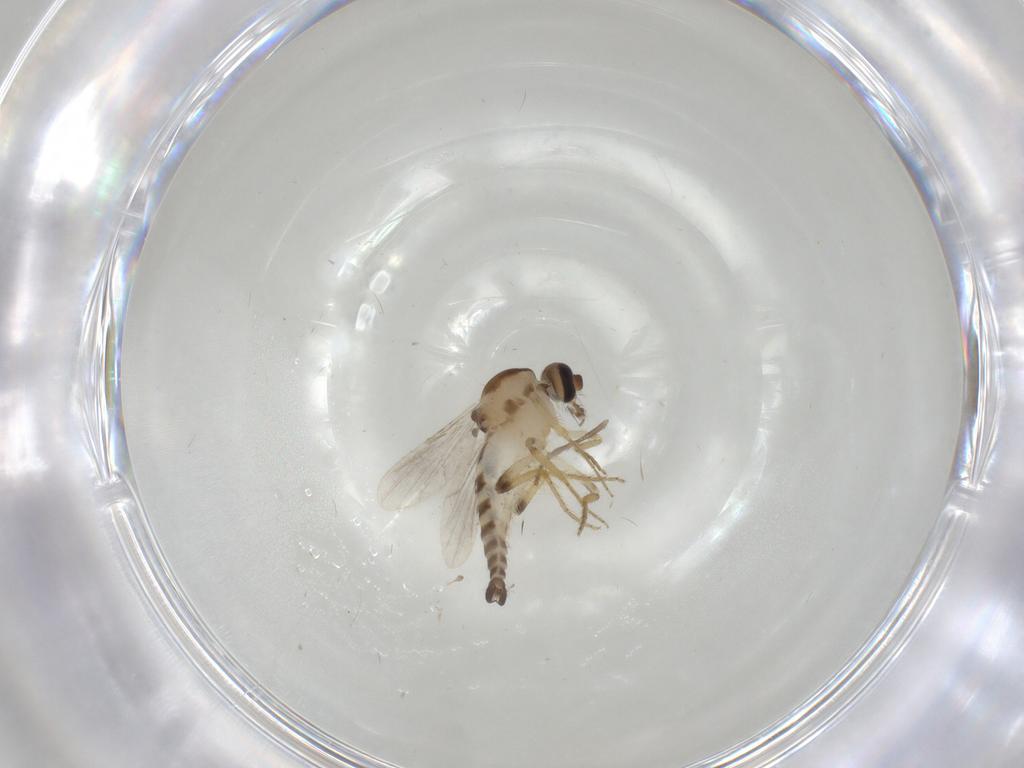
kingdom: Animalia
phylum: Arthropoda
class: Insecta
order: Diptera
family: Psychodidae
